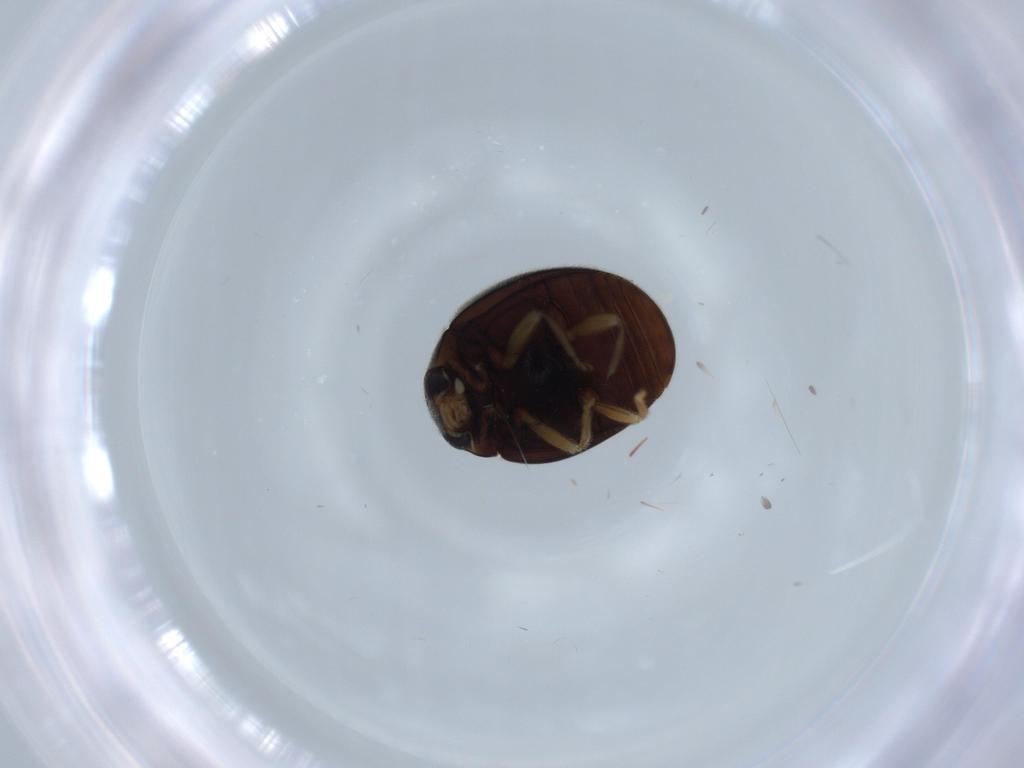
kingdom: Animalia
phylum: Arthropoda
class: Insecta
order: Coleoptera
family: Coccinellidae
